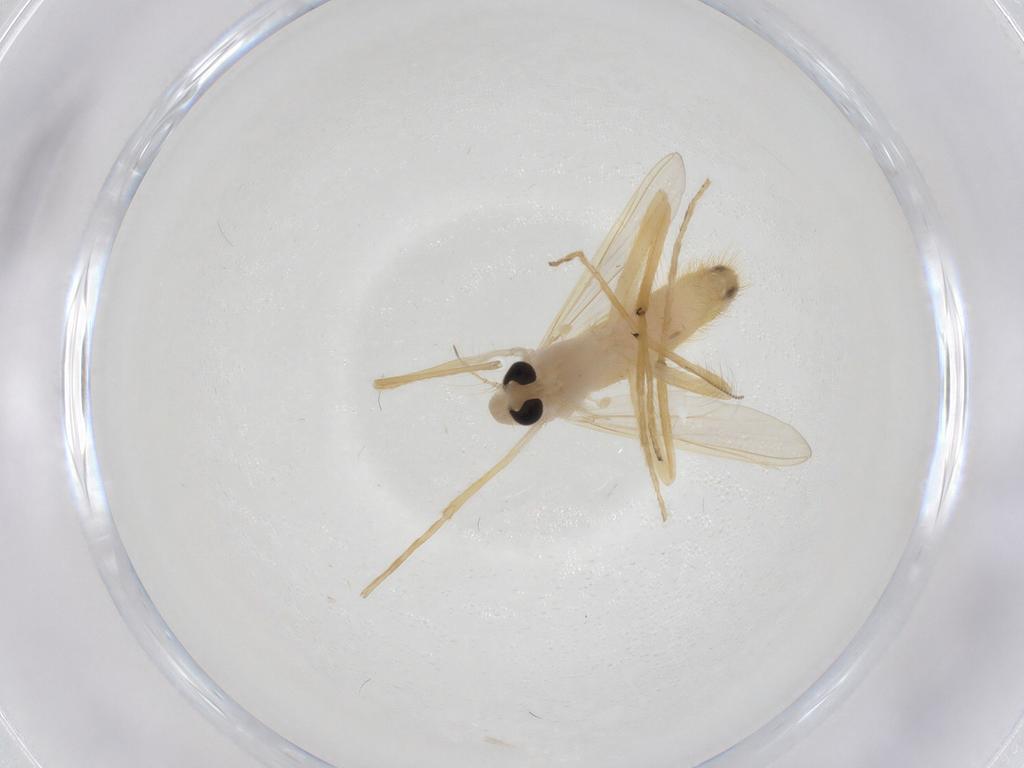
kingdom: Animalia
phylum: Arthropoda
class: Insecta
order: Diptera
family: Chironomidae
